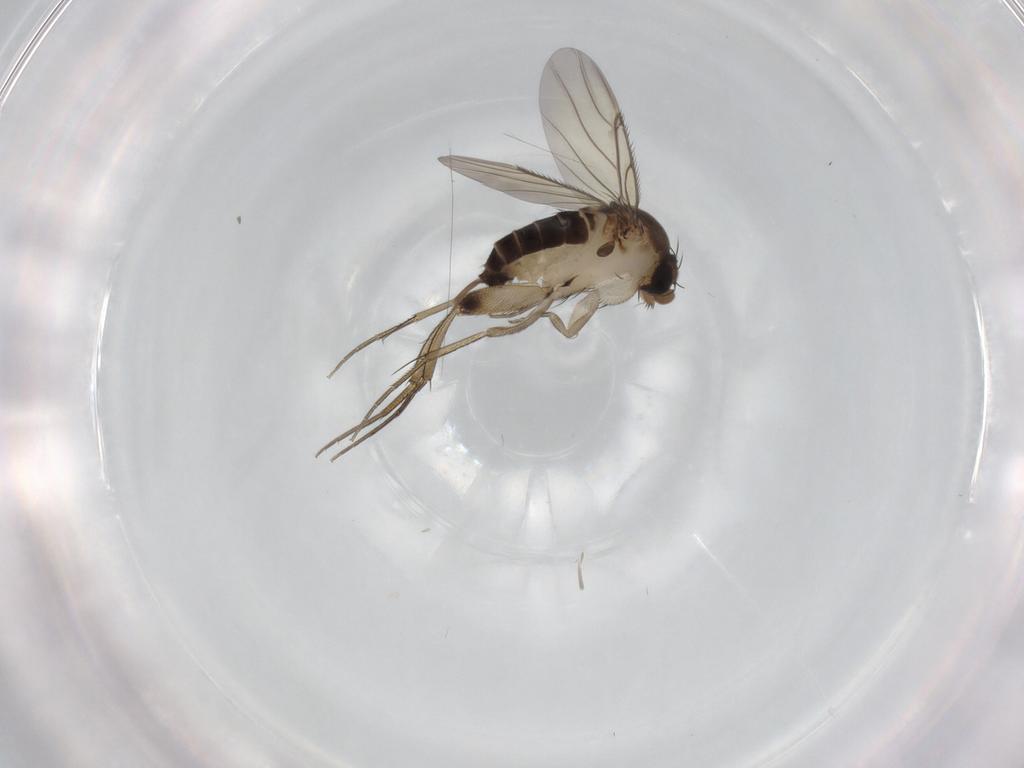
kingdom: Animalia
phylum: Arthropoda
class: Insecta
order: Diptera
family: Phoridae
